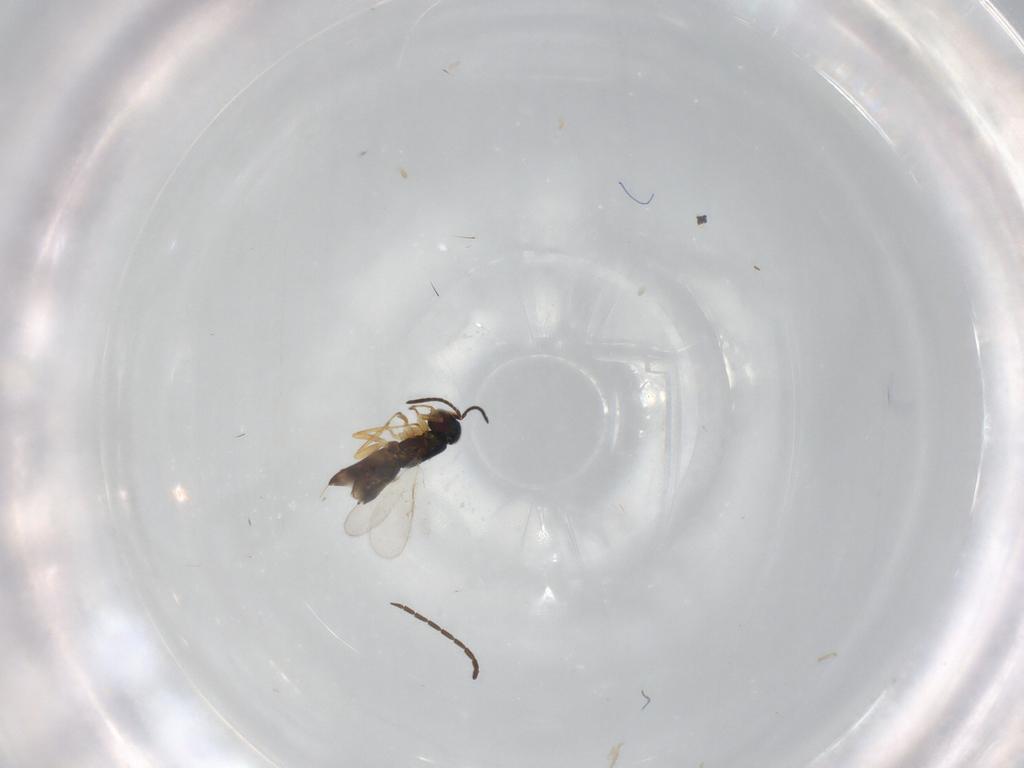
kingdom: Animalia
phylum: Arthropoda
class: Insecta
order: Hymenoptera
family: Braconidae
